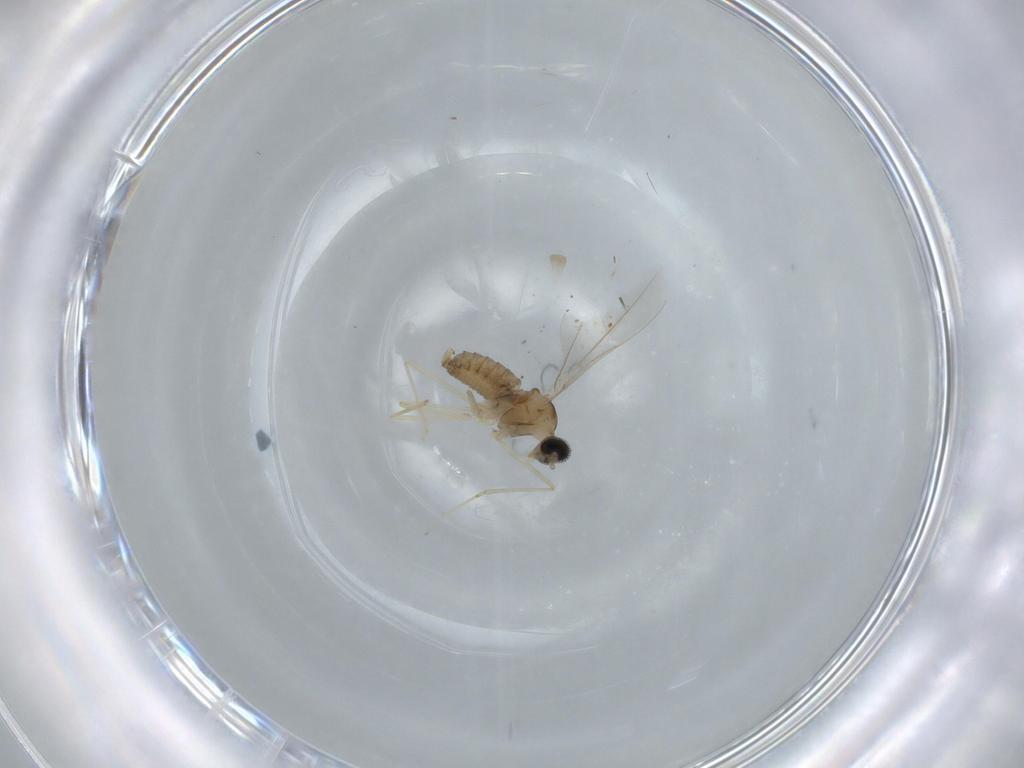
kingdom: Animalia
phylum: Arthropoda
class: Insecta
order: Diptera
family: Cecidomyiidae
